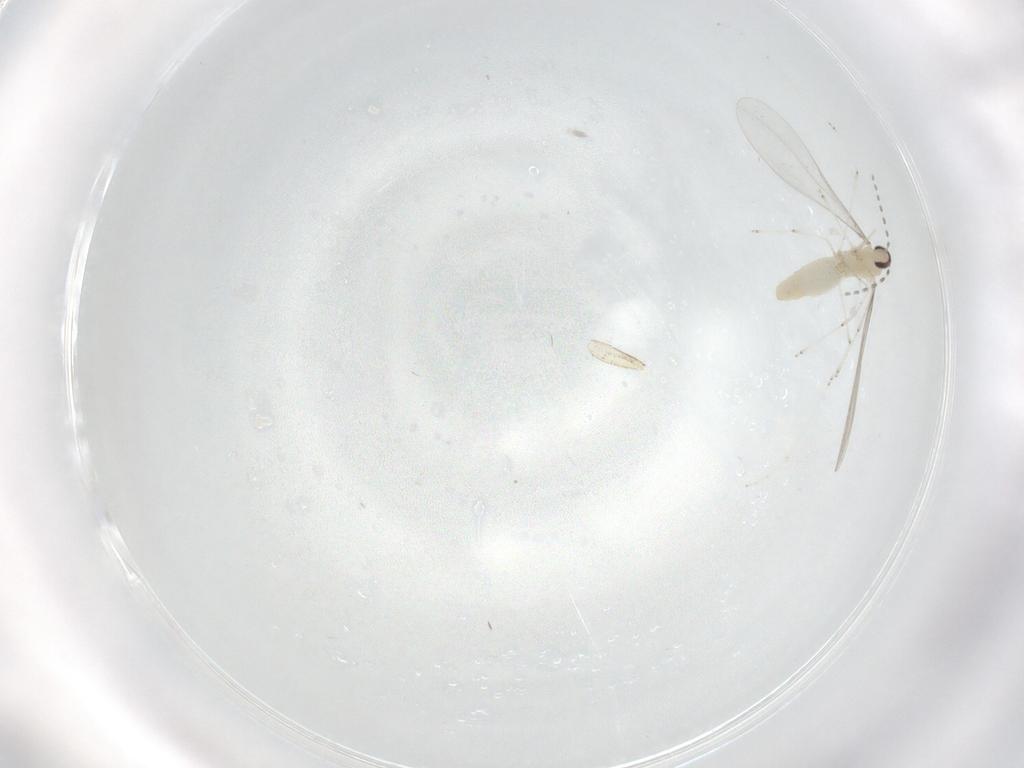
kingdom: Animalia
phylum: Arthropoda
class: Insecta
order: Diptera
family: Cecidomyiidae
